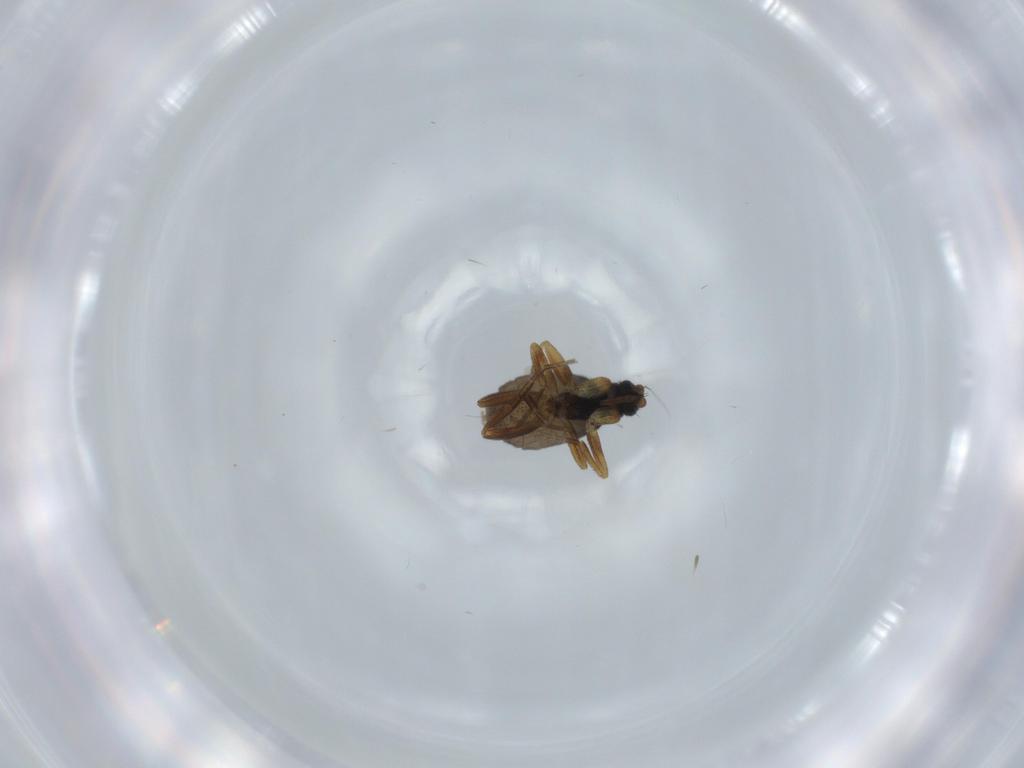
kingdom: Animalia
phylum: Arthropoda
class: Insecta
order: Diptera
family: Phoridae
